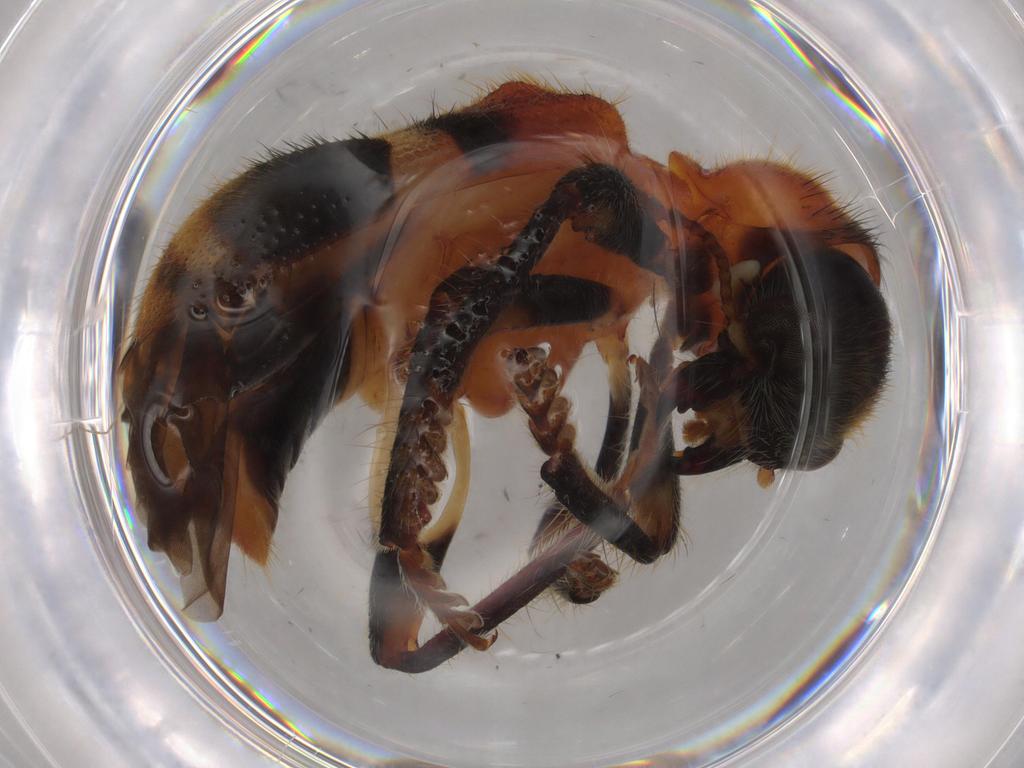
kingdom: Animalia
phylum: Arthropoda
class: Insecta
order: Coleoptera
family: Cleridae
